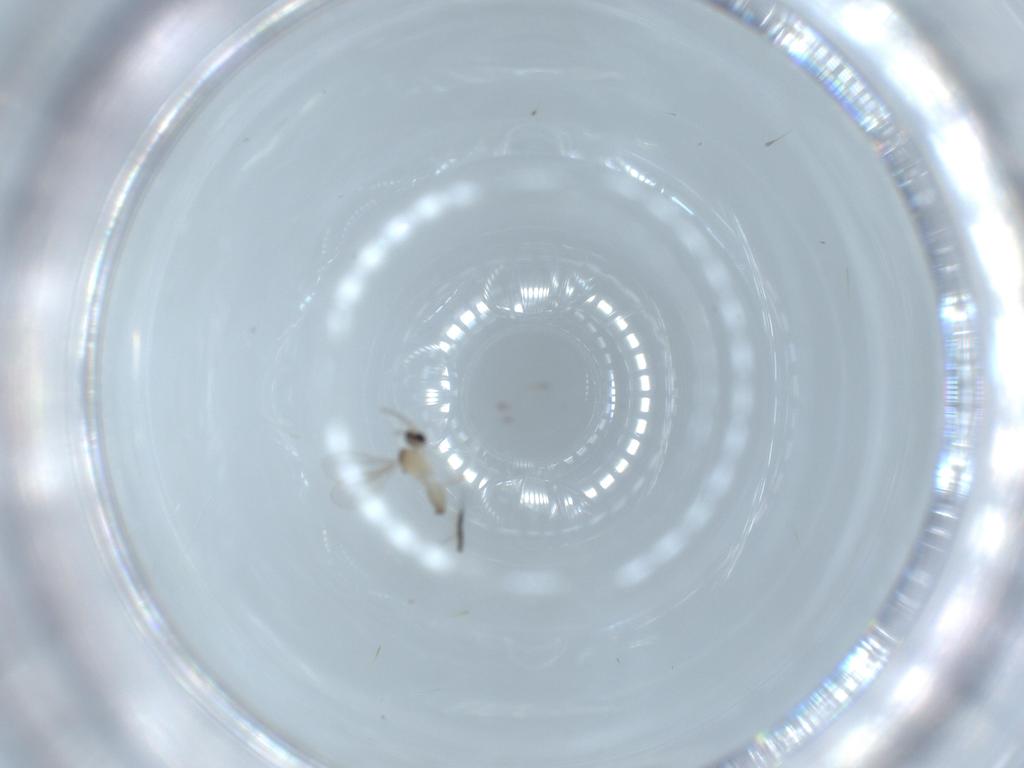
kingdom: Animalia
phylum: Arthropoda
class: Insecta
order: Diptera
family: Cecidomyiidae
